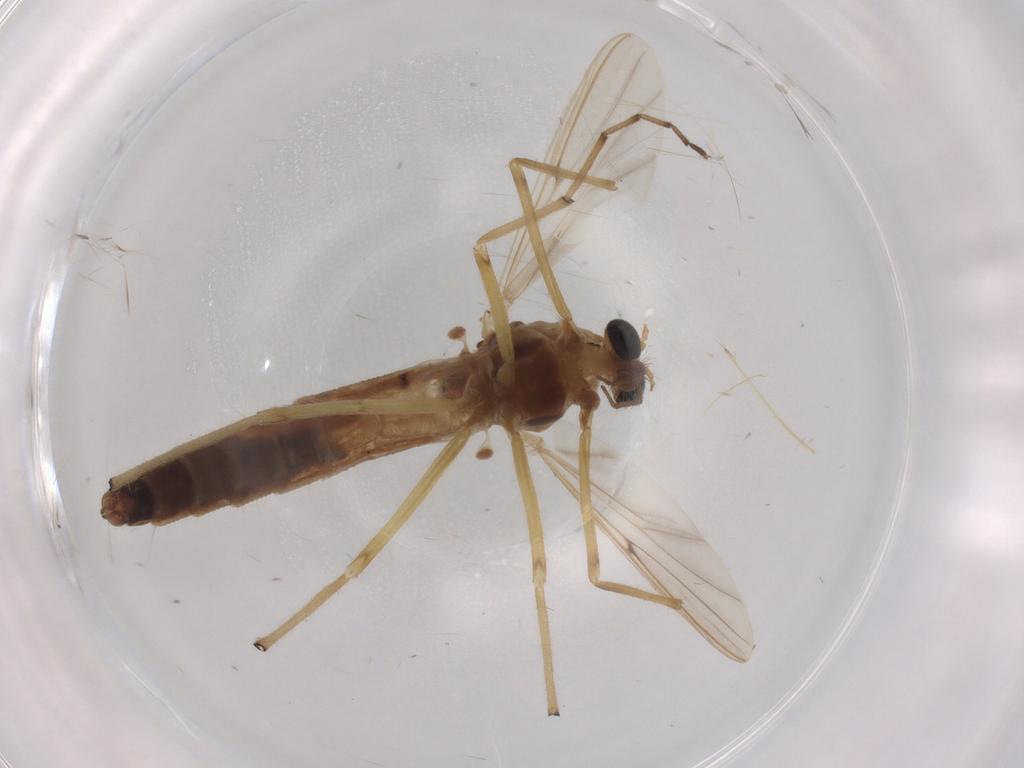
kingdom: Animalia
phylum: Arthropoda
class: Insecta
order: Diptera
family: Chironomidae
